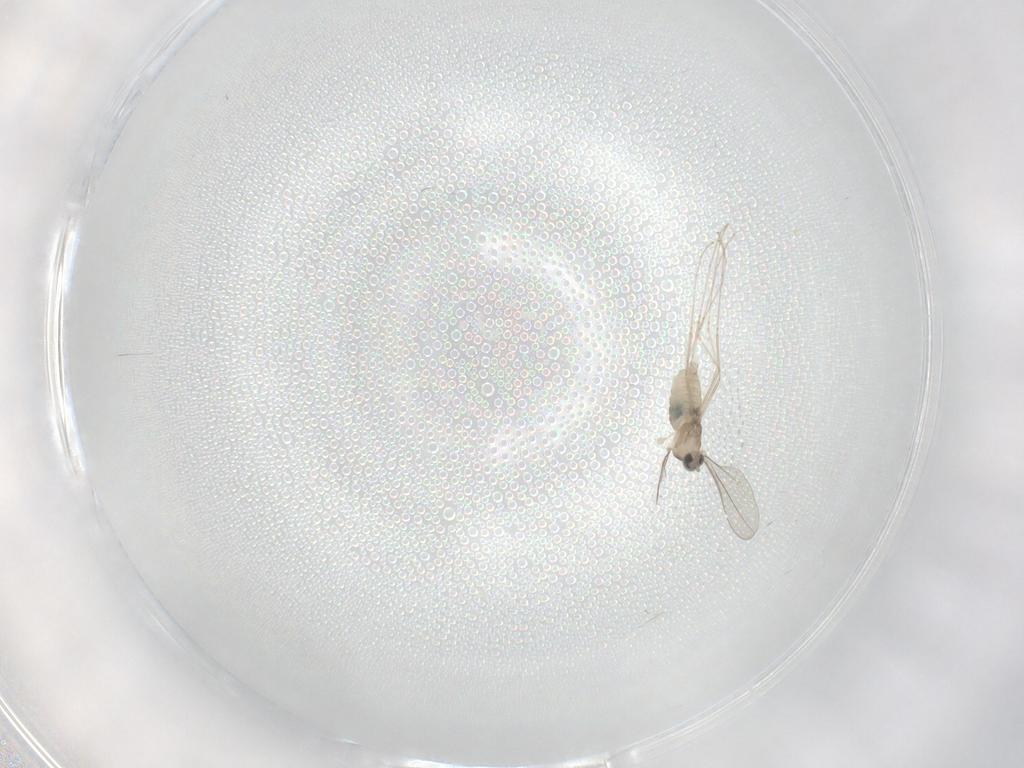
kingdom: Animalia
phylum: Arthropoda
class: Insecta
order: Diptera
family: Cecidomyiidae
